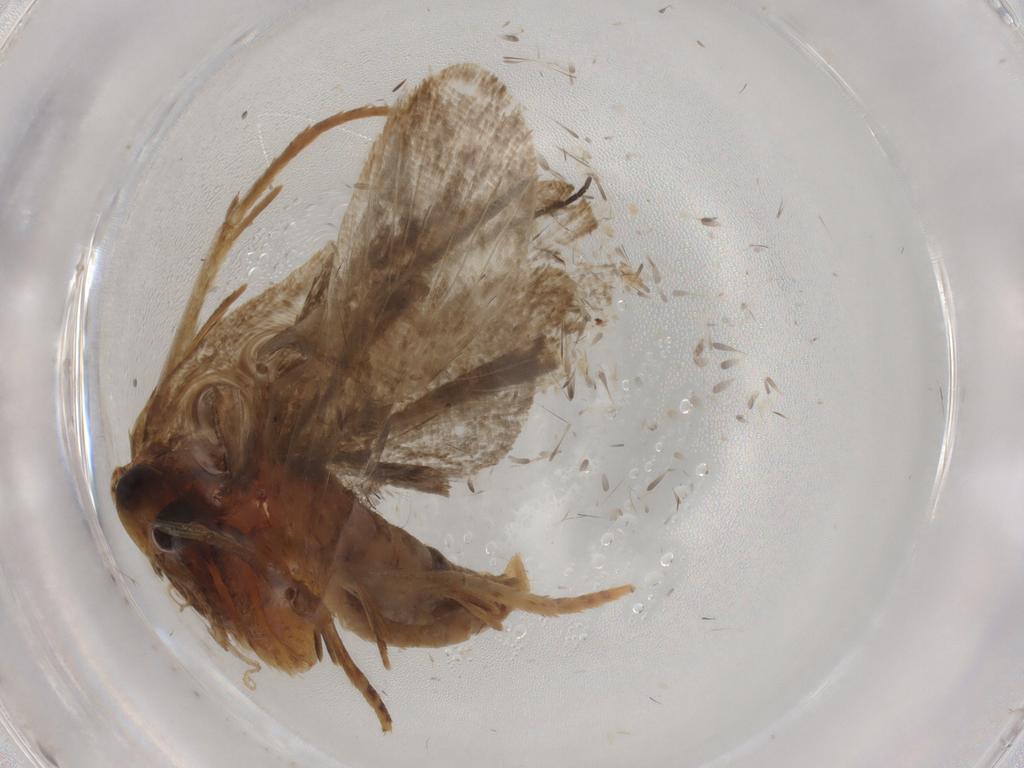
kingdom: Animalia
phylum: Arthropoda
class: Insecta
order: Lepidoptera
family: Autostichidae
